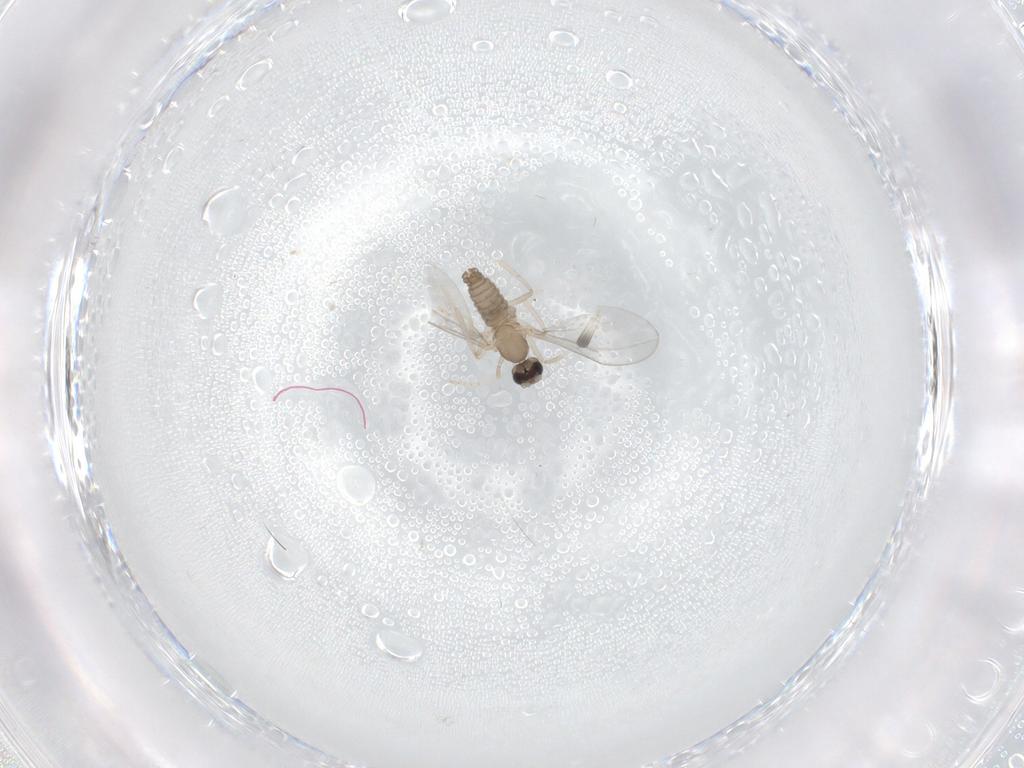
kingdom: Animalia
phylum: Arthropoda
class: Insecta
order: Diptera
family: Cecidomyiidae
